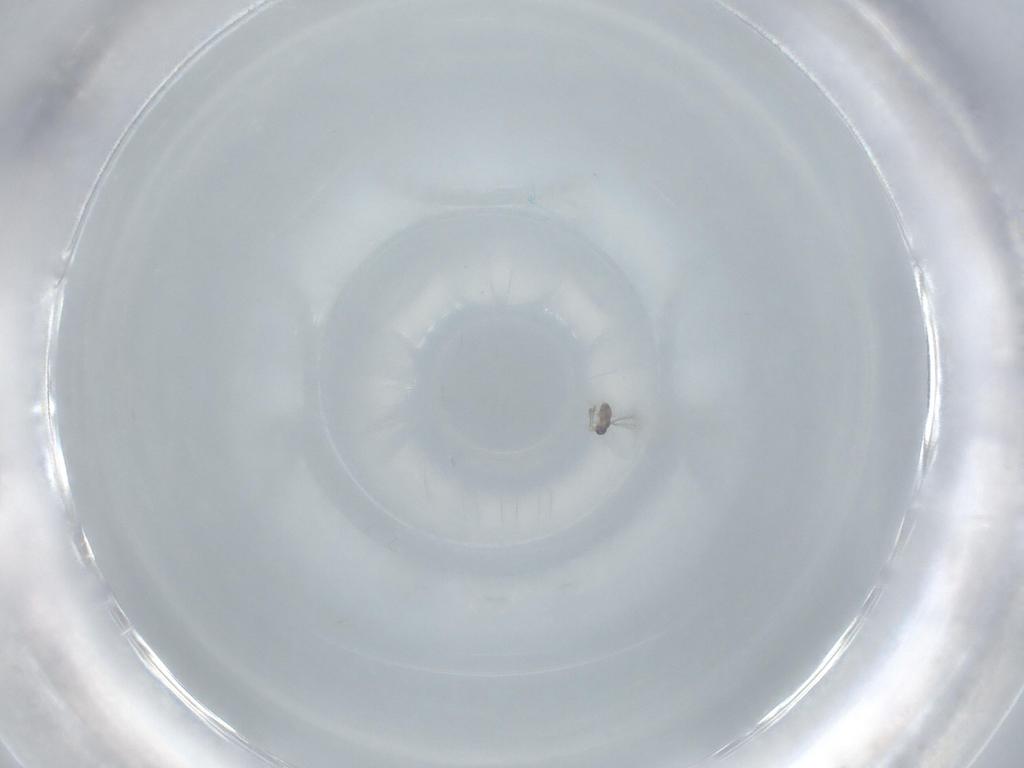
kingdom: Animalia
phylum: Arthropoda
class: Insecta
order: Hymenoptera
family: Mymaridae
